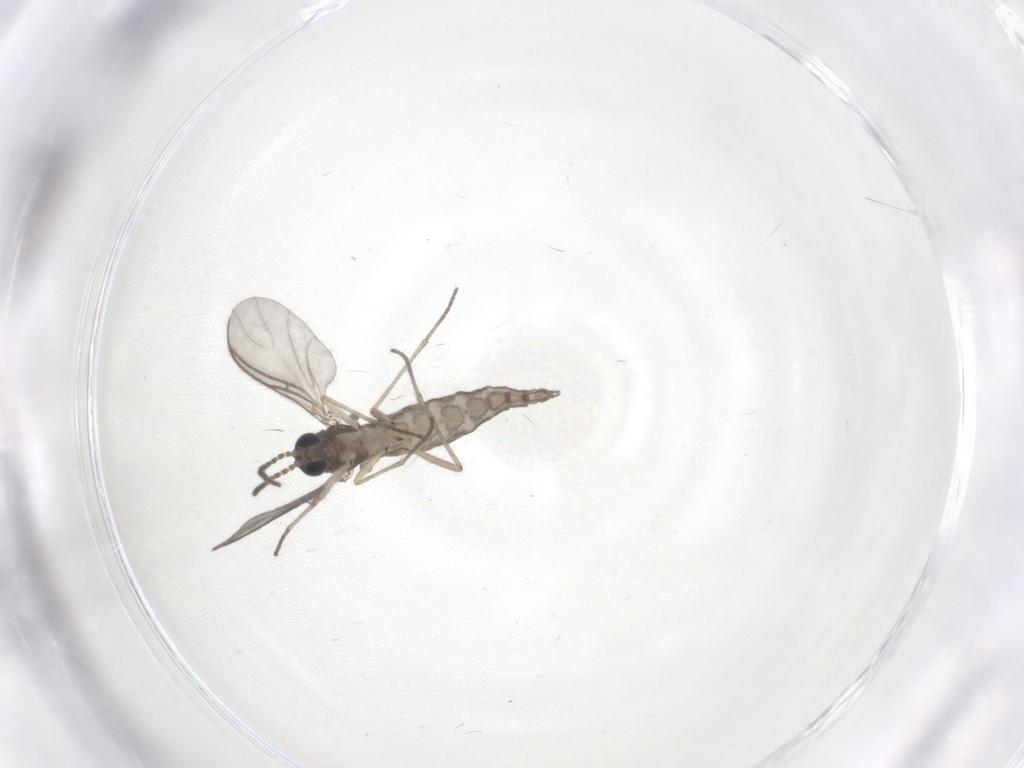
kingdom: Animalia
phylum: Arthropoda
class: Insecta
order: Diptera
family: Sciaridae
